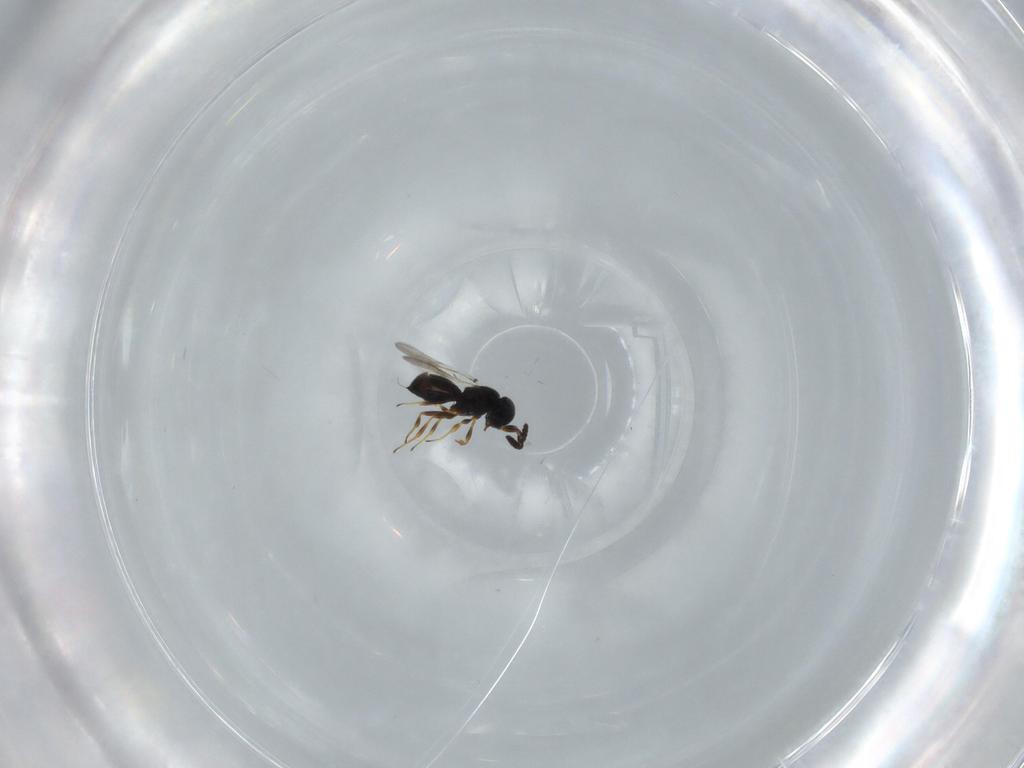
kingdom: Animalia
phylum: Arthropoda
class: Insecta
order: Hymenoptera
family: Scelionidae
